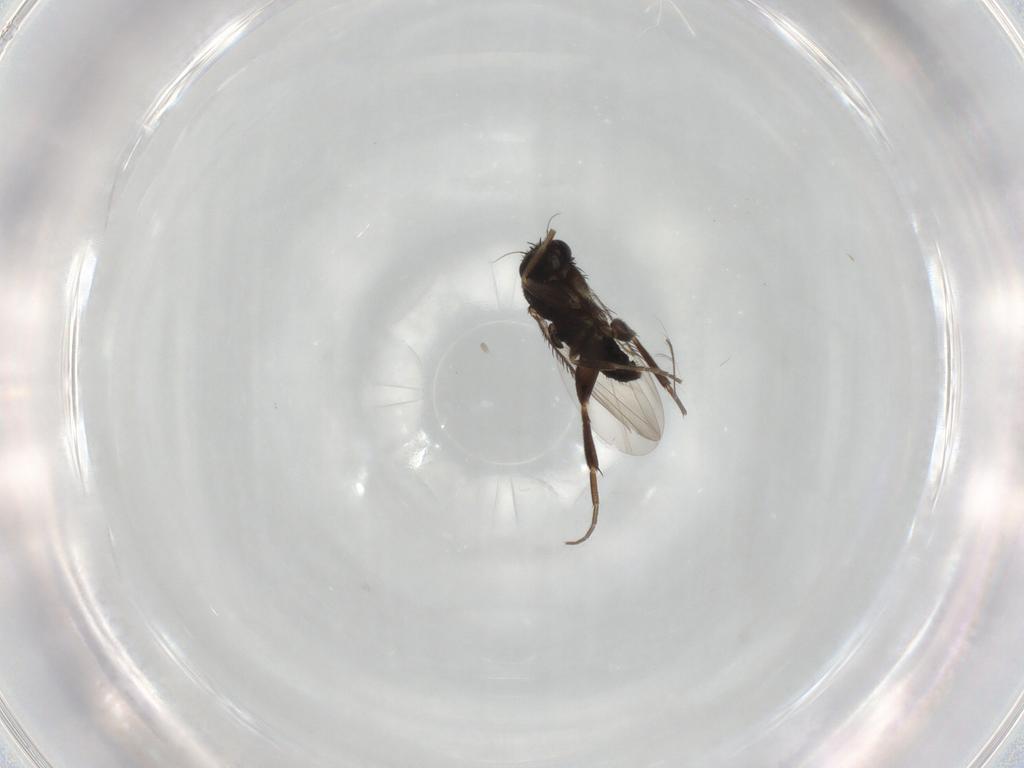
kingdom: Animalia
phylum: Arthropoda
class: Insecta
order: Diptera
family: Phoridae
